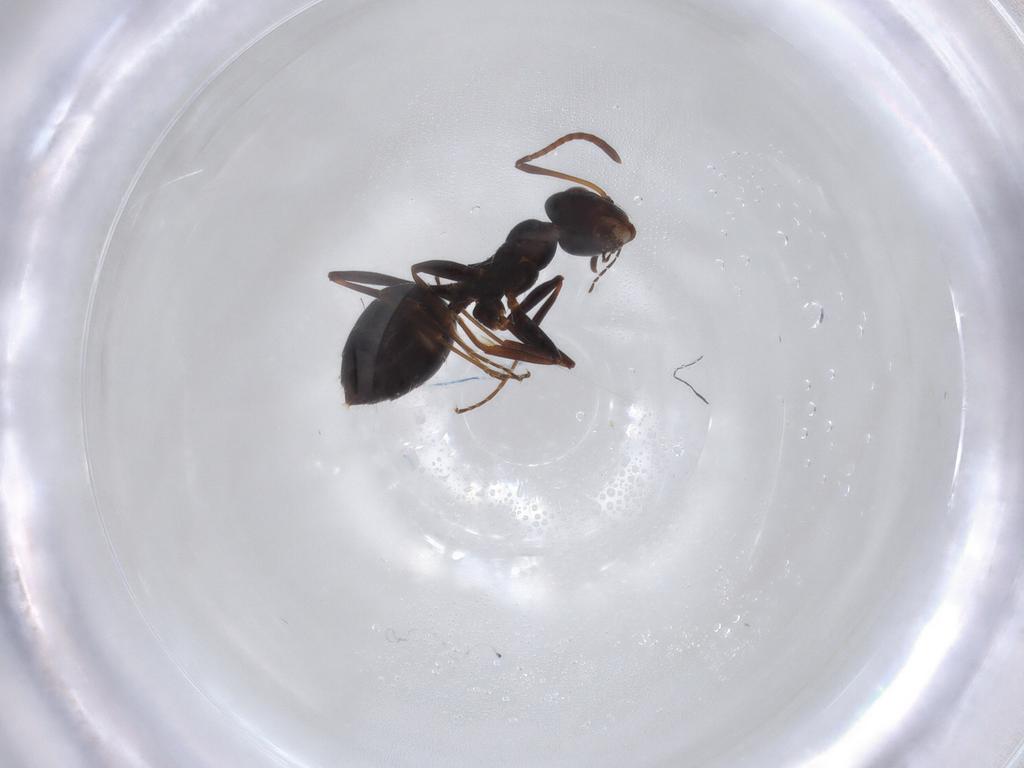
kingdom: Animalia
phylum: Arthropoda
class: Insecta
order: Hymenoptera
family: Formicidae
